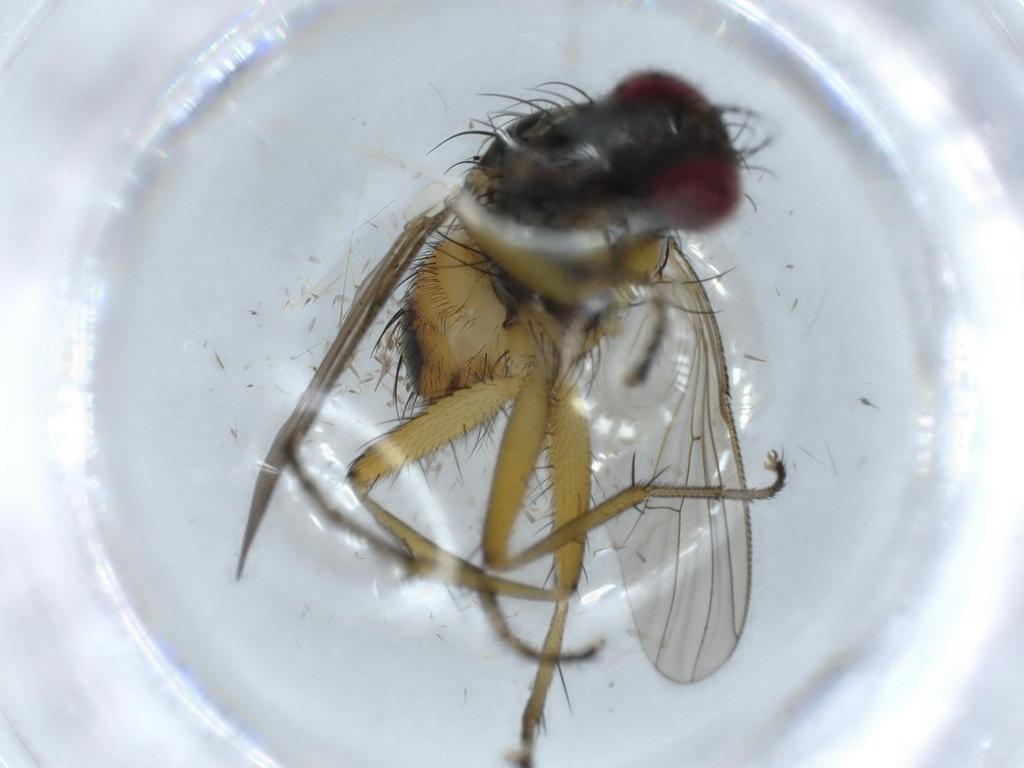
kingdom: Animalia
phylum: Arthropoda
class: Insecta
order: Diptera
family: Muscidae
